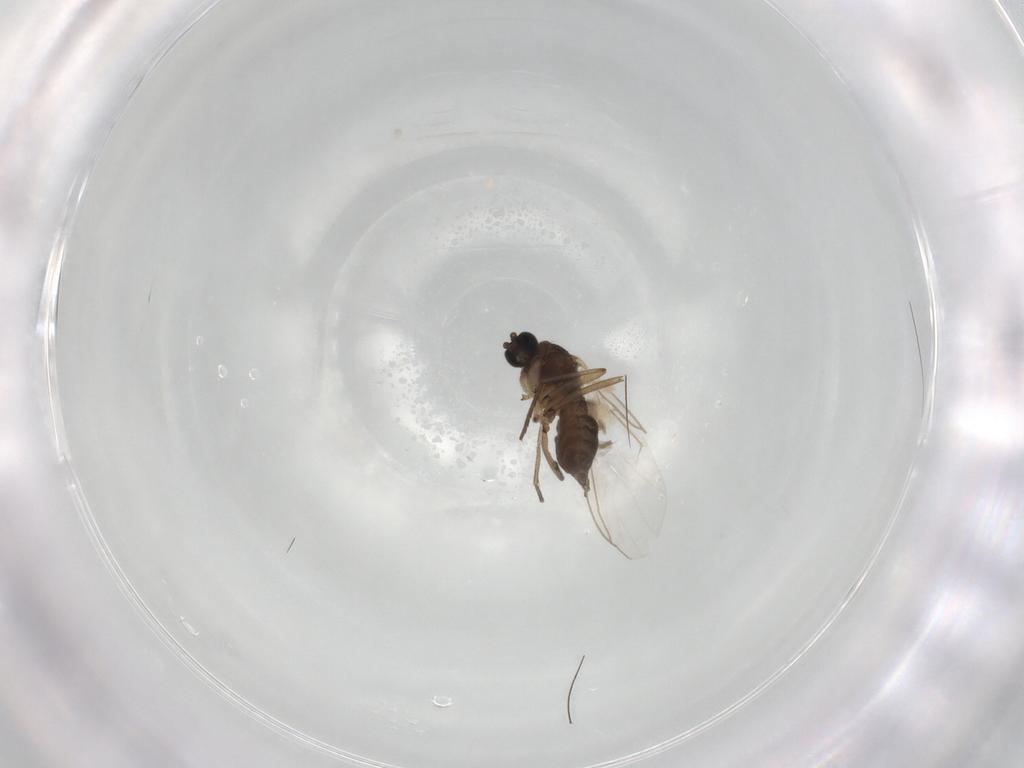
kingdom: Animalia
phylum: Arthropoda
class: Insecta
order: Diptera
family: Sciaridae
